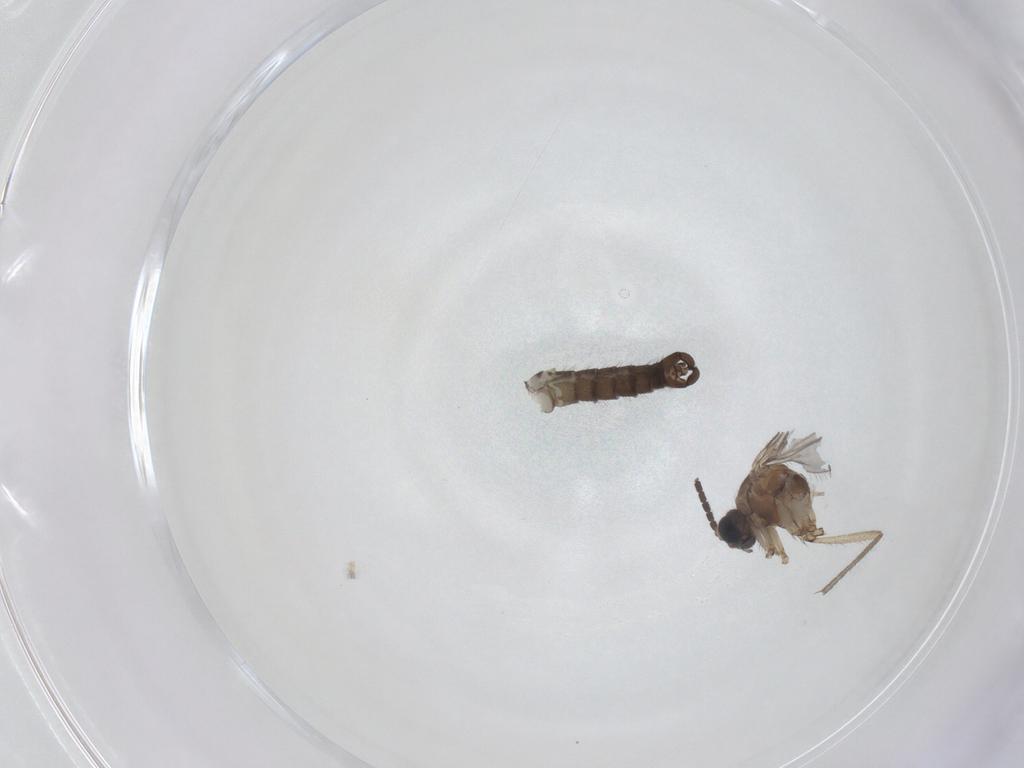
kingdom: Animalia
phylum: Arthropoda
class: Insecta
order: Diptera
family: Sciaridae
